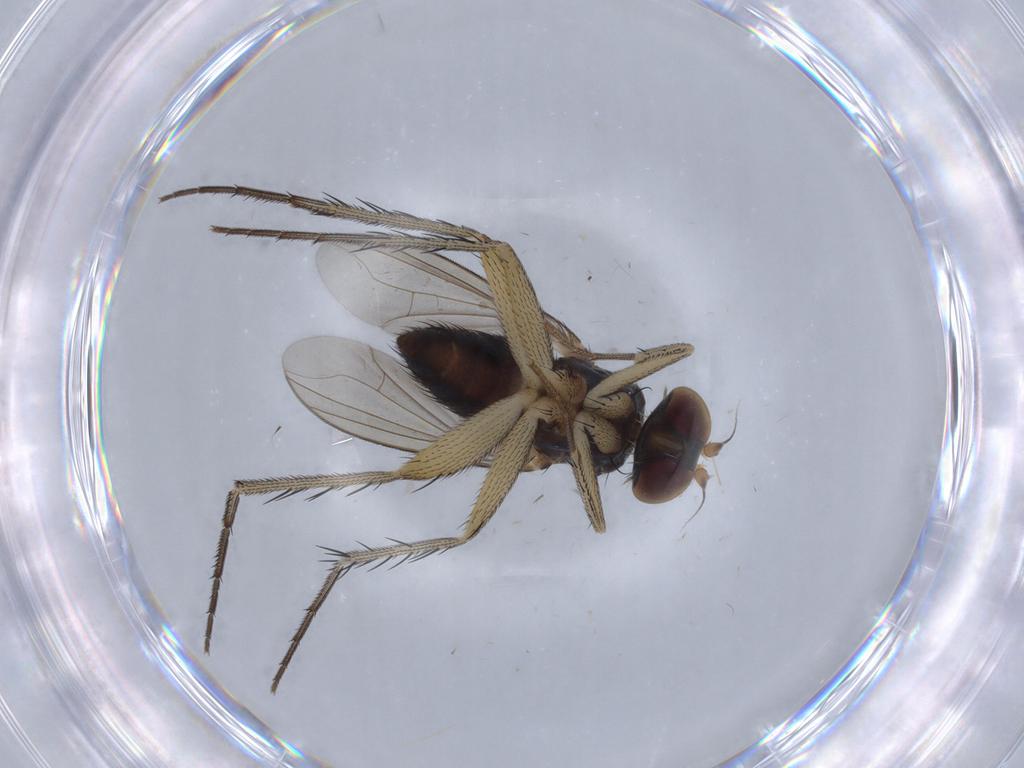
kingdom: Animalia
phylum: Arthropoda
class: Insecta
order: Diptera
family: Dolichopodidae
